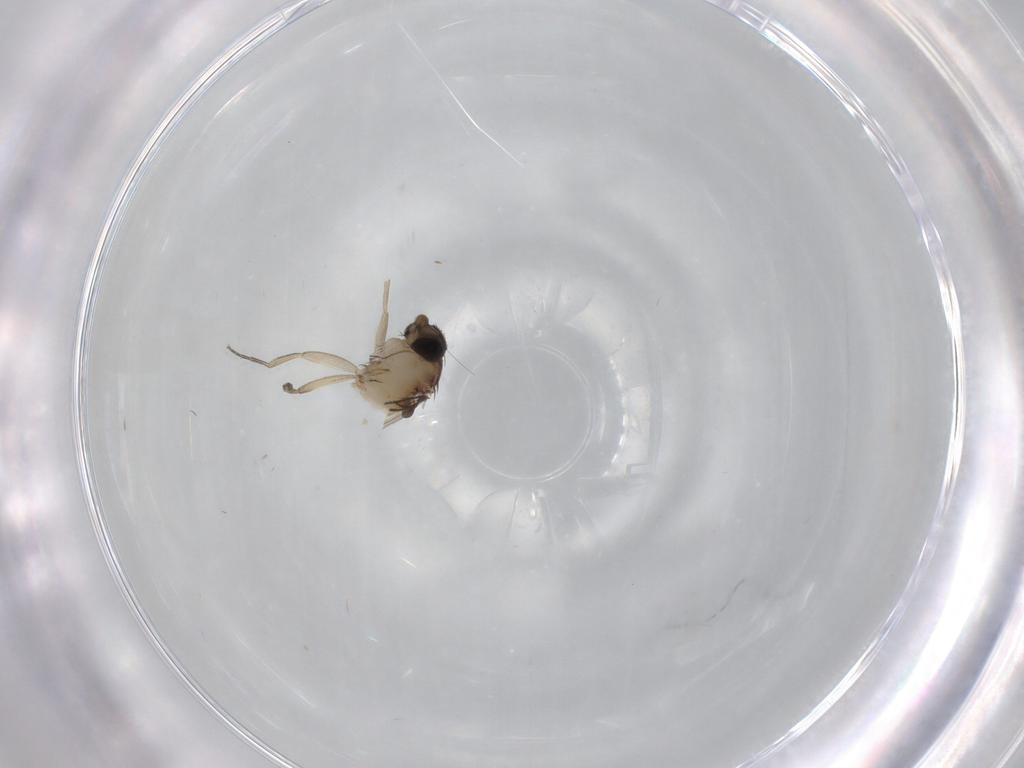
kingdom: Animalia
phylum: Arthropoda
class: Insecta
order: Diptera
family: Phoridae
